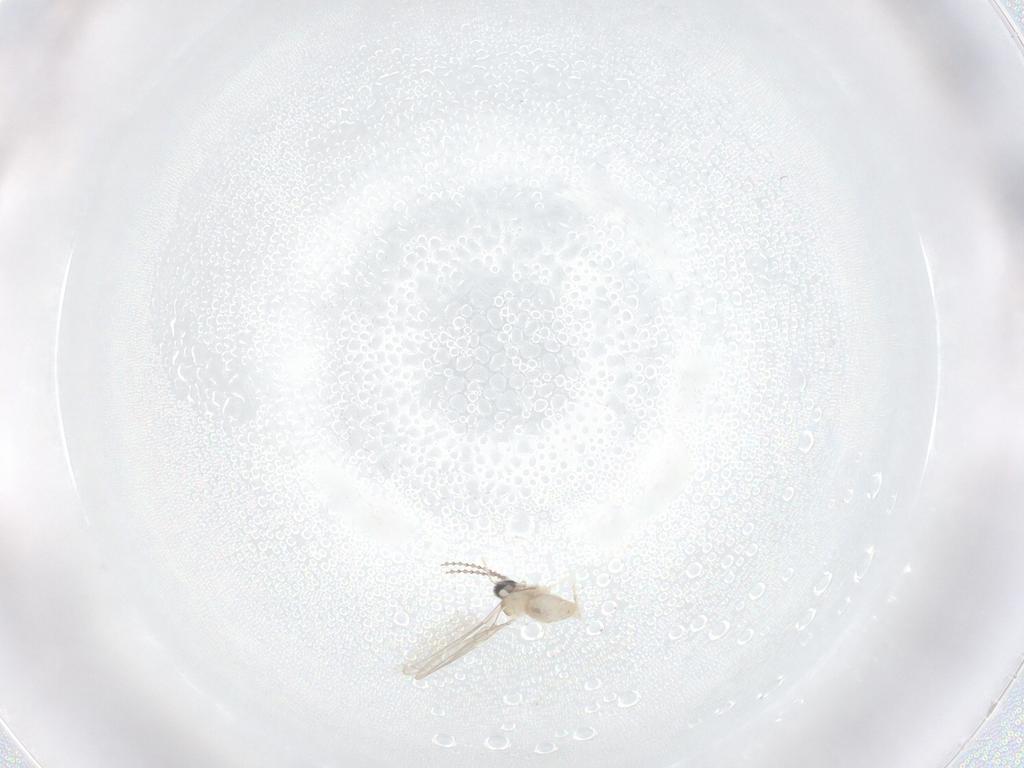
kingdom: Animalia
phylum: Arthropoda
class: Insecta
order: Diptera
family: Cecidomyiidae
